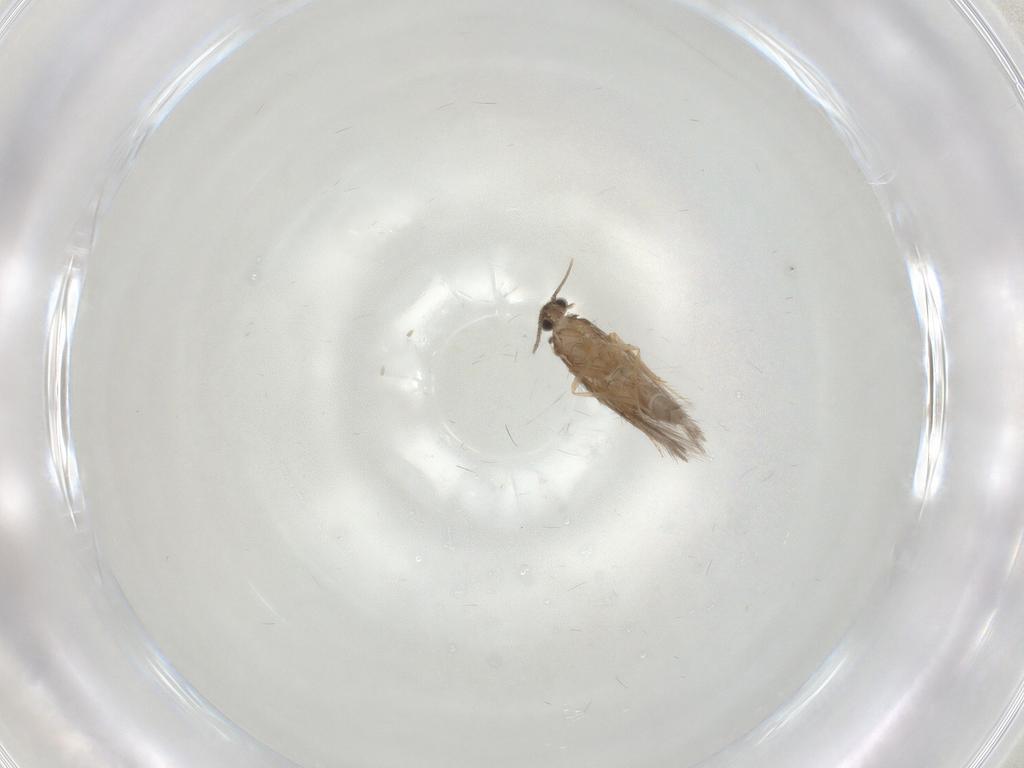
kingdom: Animalia
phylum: Arthropoda
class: Insecta
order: Trichoptera
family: Hydroptilidae
